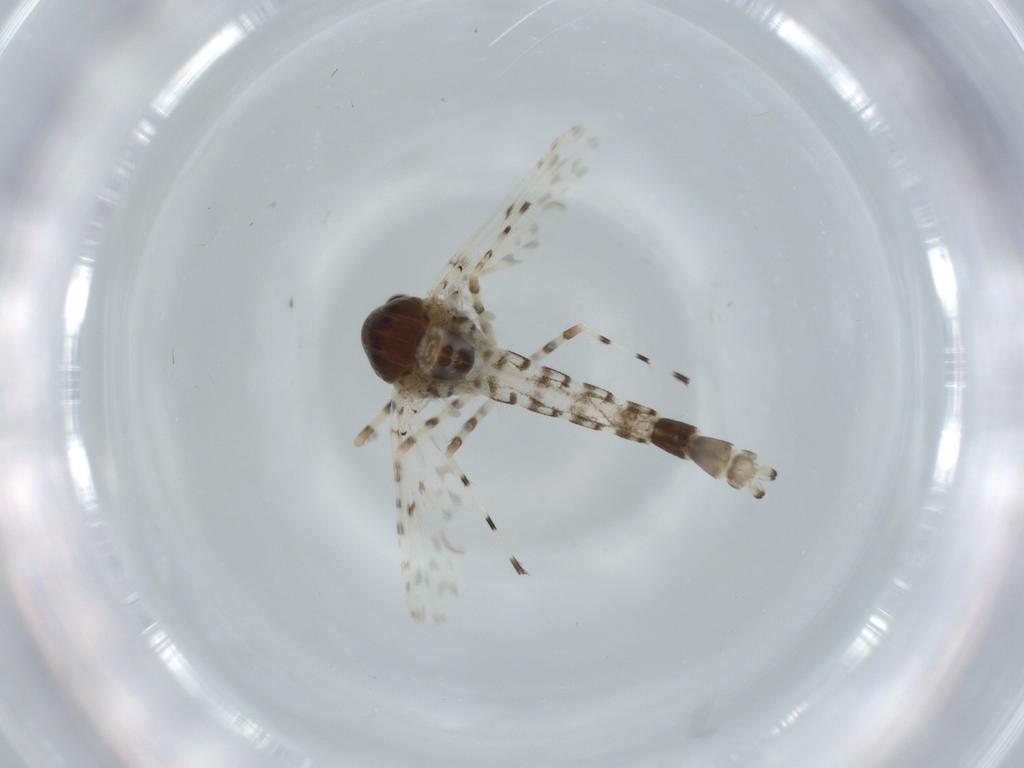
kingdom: Animalia
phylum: Arthropoda
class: Insecta
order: Diptera
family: Chironomidae
